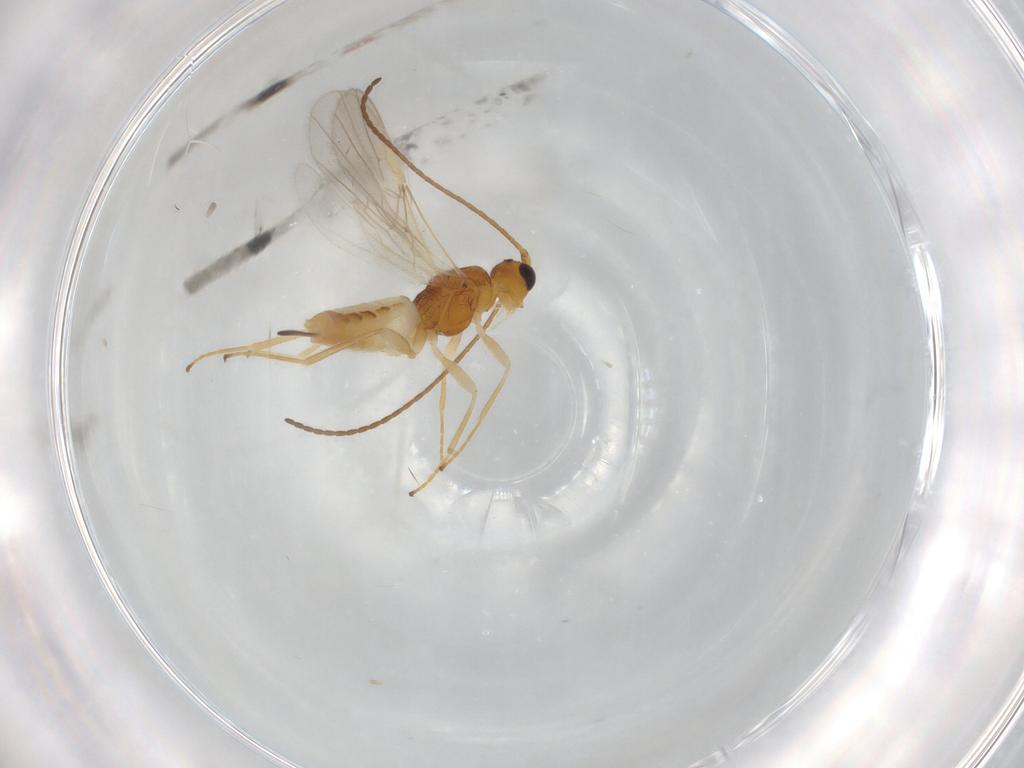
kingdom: Animalia
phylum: Arthropoda
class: Insecta
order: Hymenoptera
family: Braconidae
